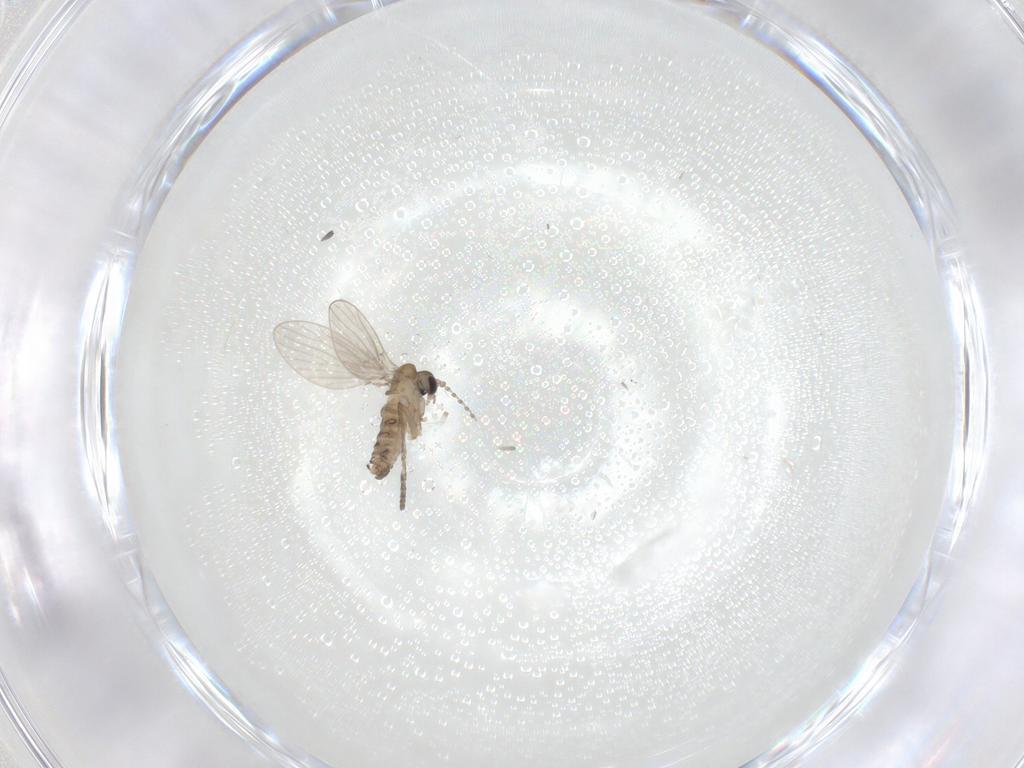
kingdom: Animalia
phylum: Arthropoda
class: Insecta
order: Diptera
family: Psychodidae
